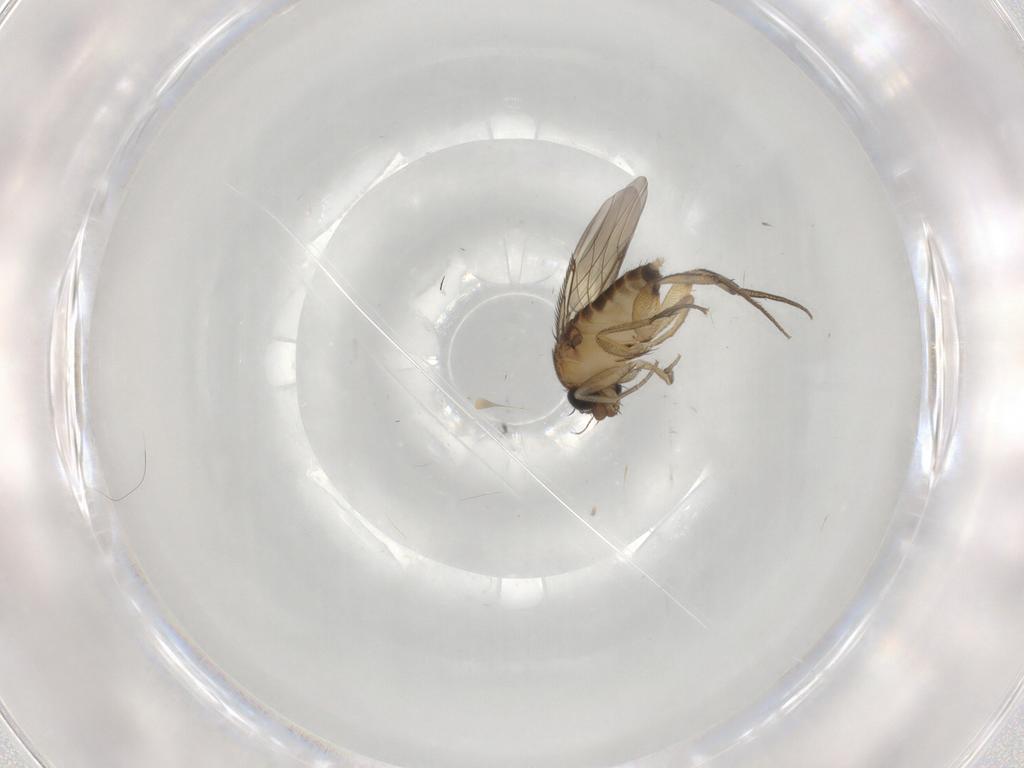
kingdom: Animalia
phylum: Arthropoda
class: Insecta
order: Diptera
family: Phoridae
